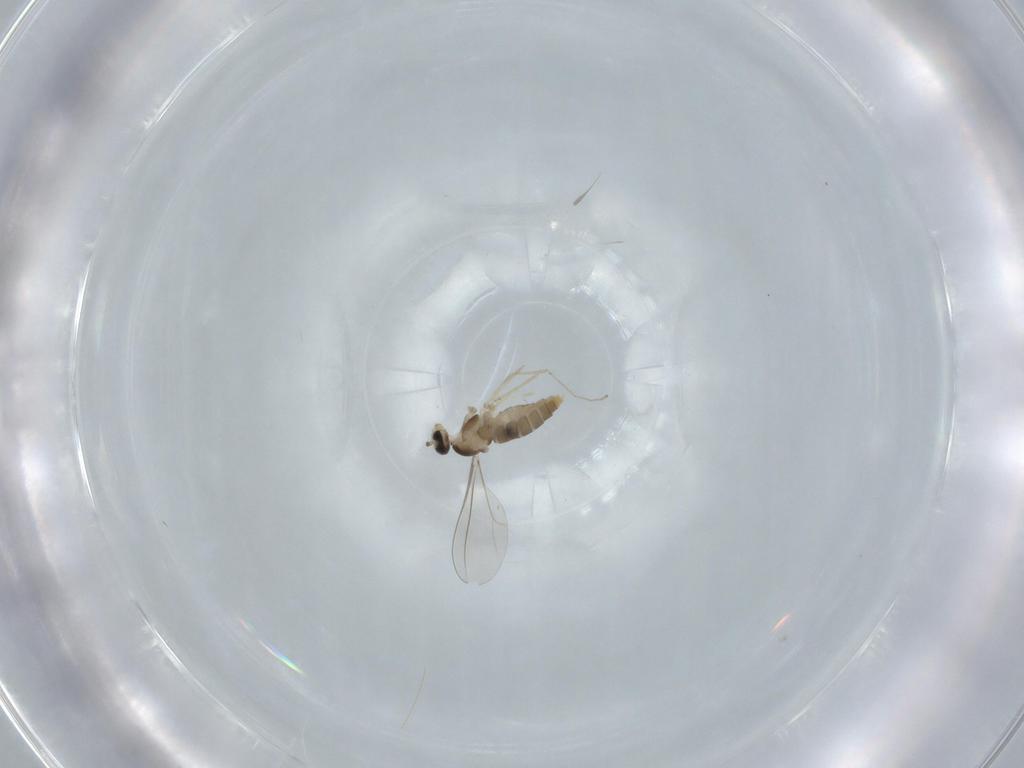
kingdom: Animalia
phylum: Arthropoda
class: Insecta
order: Diptera
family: Cecidomyiidae
